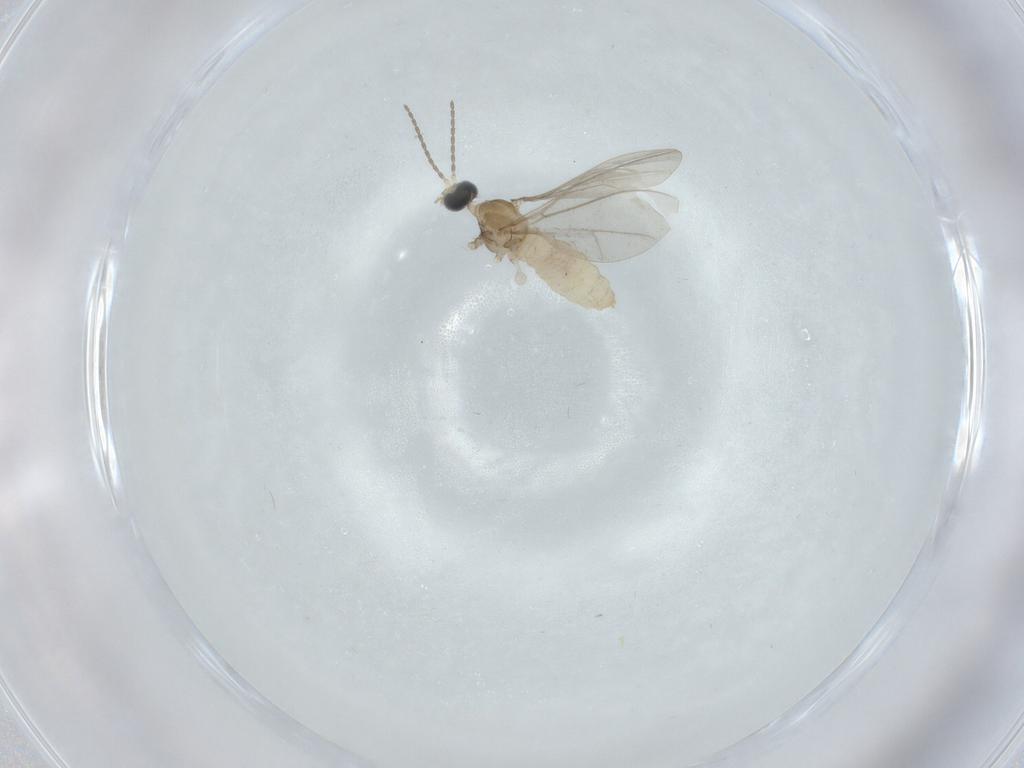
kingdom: Animalia
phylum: Arthropoda
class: Insecta
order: Diptera
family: Cecidomyiidae
